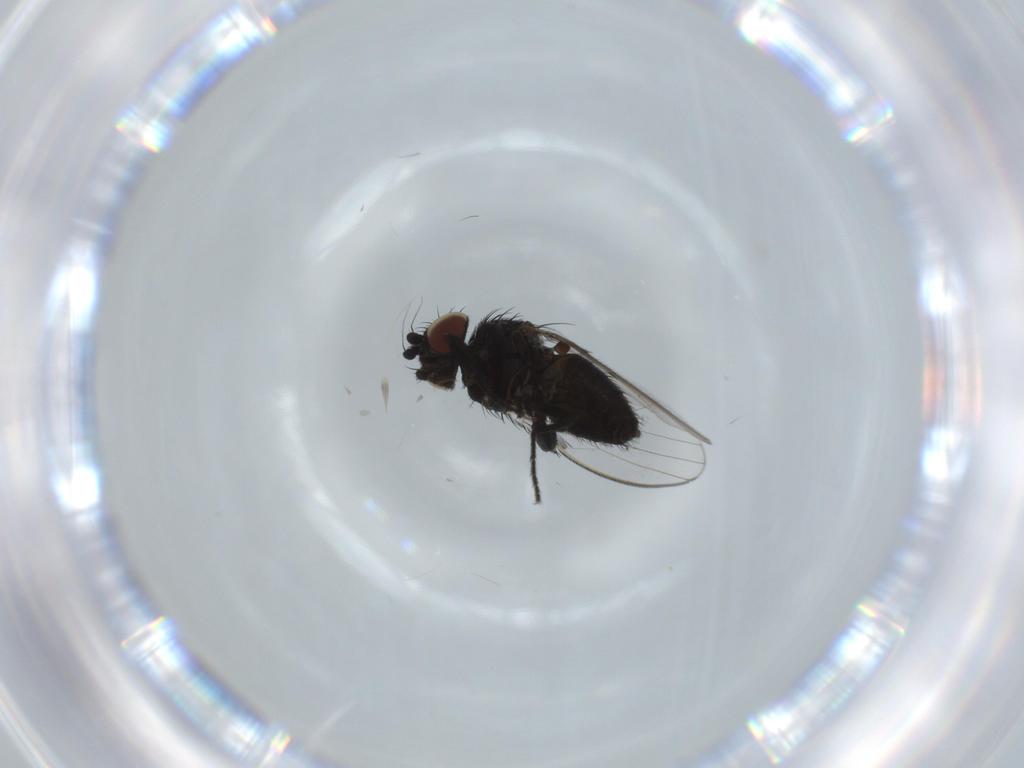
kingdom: Animalia
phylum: Arthropoda
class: Insecta
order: Diptera
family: Milichiidae
